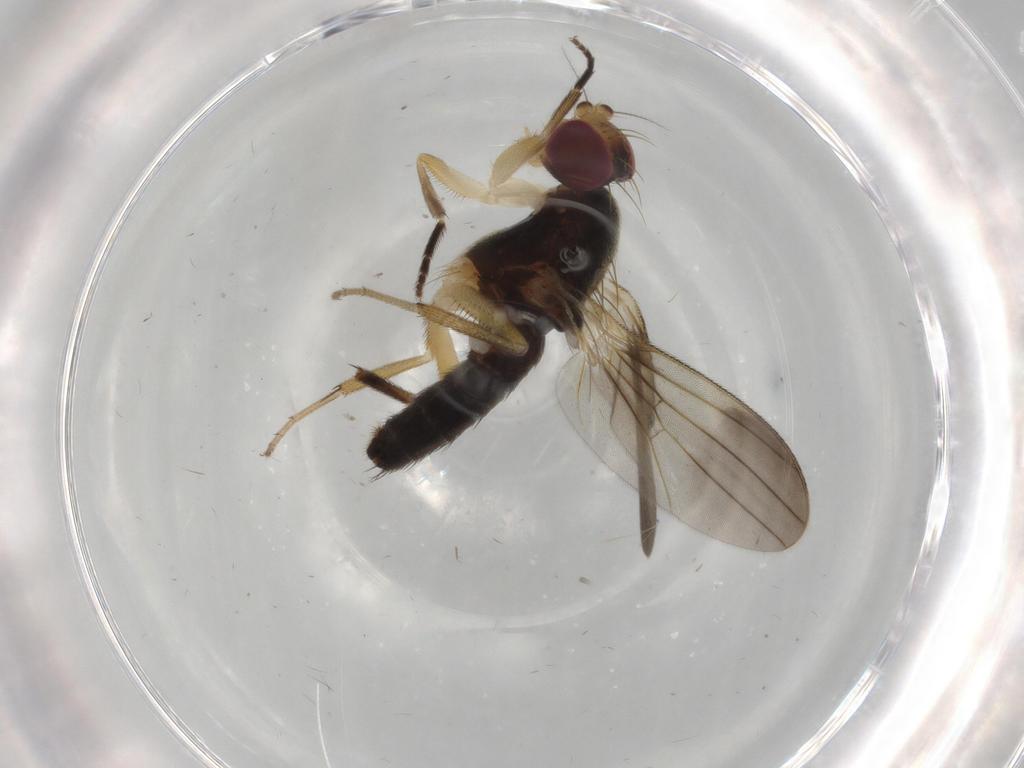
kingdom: Animalia
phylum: Arthropoda
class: Insecta
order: Diptera
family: Clusiidae
